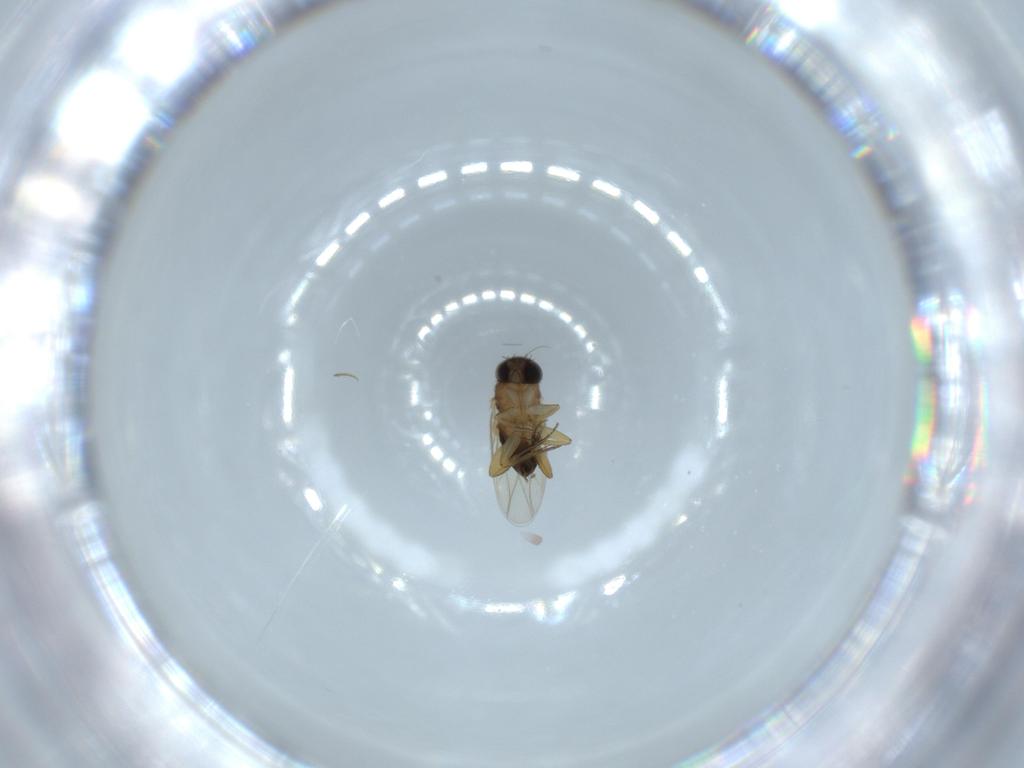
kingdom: Animalia
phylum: Arthropoda
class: Insecta
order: Diptera
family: Phoridae
